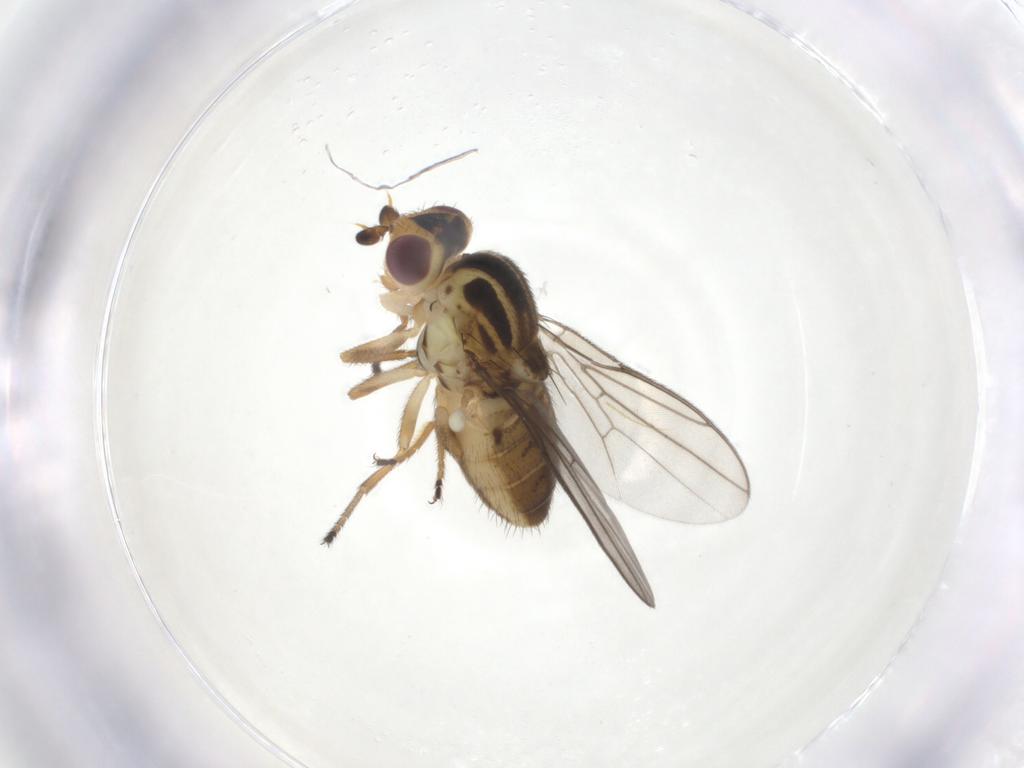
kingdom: Animalia
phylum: Arthropoda
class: Insecta
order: Diptera
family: Chloropidae
